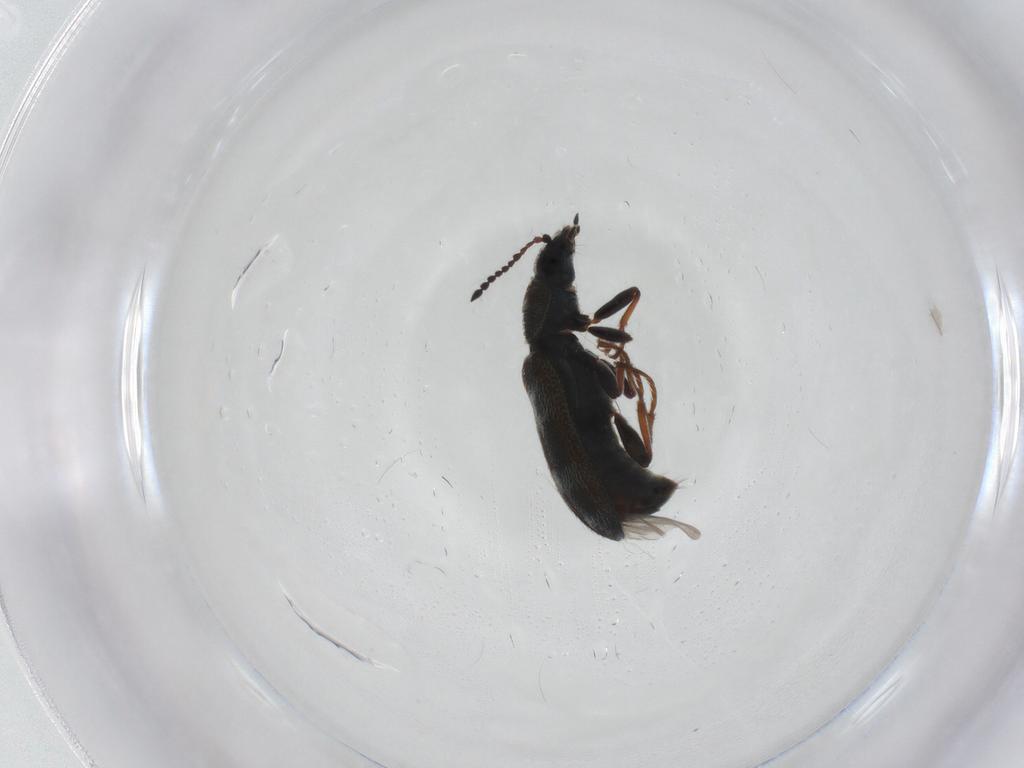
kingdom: Animalia
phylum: Arthropoda
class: Insecta
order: Coleoptera
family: Melyridae
